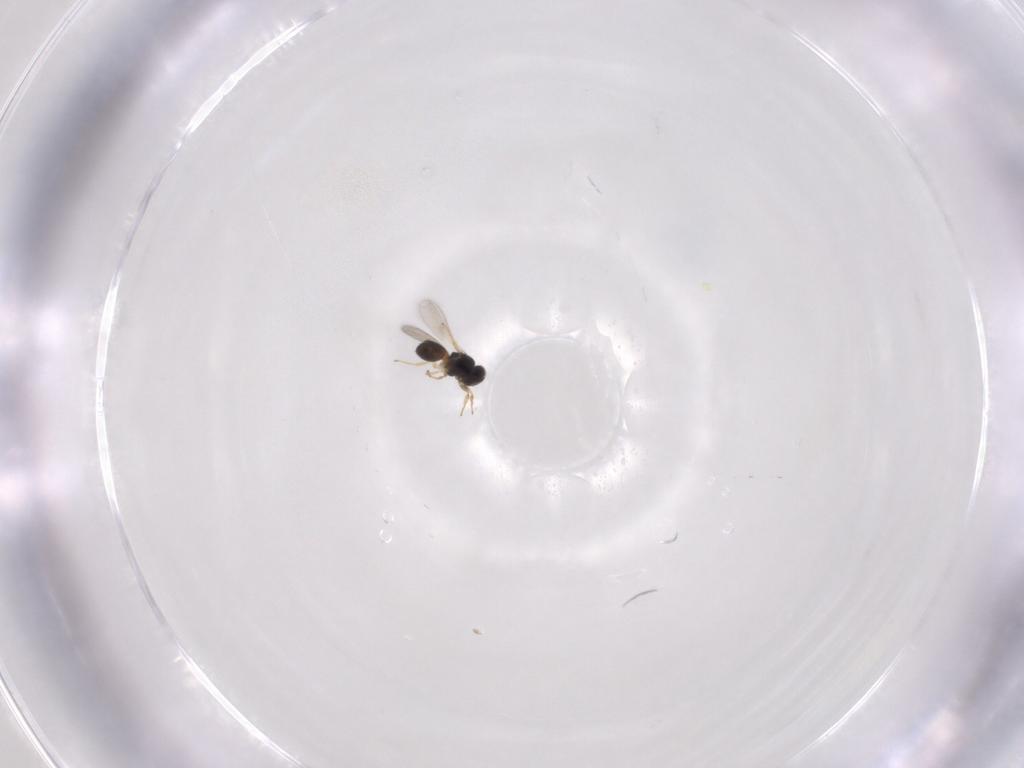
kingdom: Animalia
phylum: Arthropoda
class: Insecta
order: Hymenoptera
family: Scelionidae
